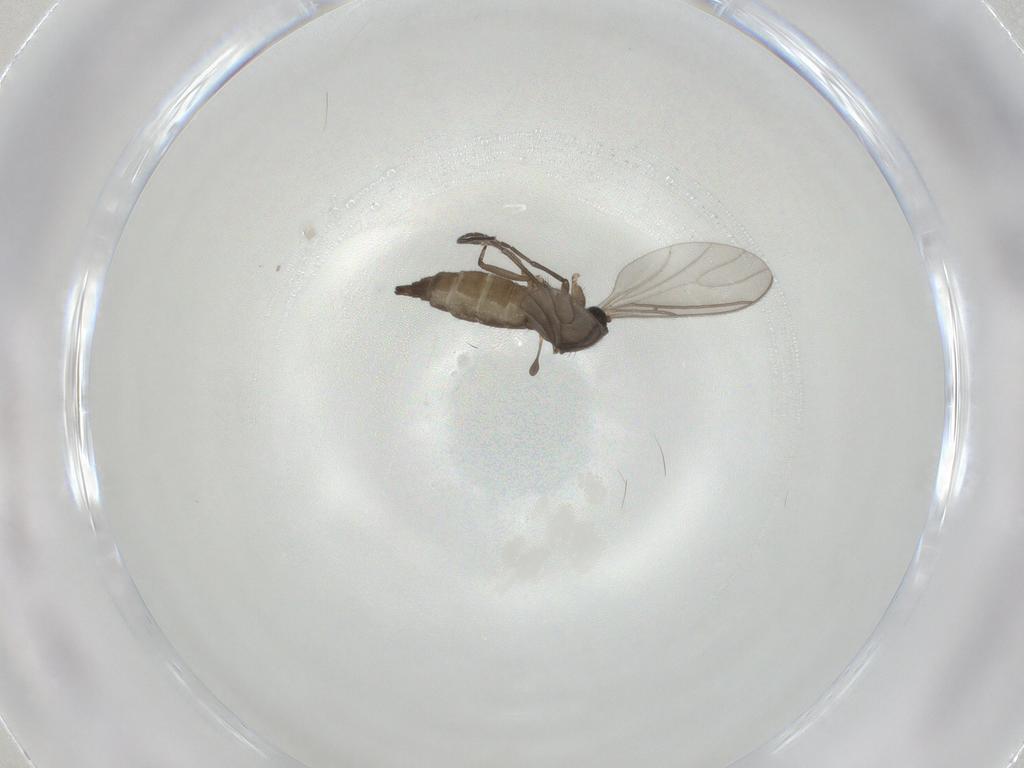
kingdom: Animalia
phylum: Arthropoda
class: Insecta
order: Diptera
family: Sciaridae
